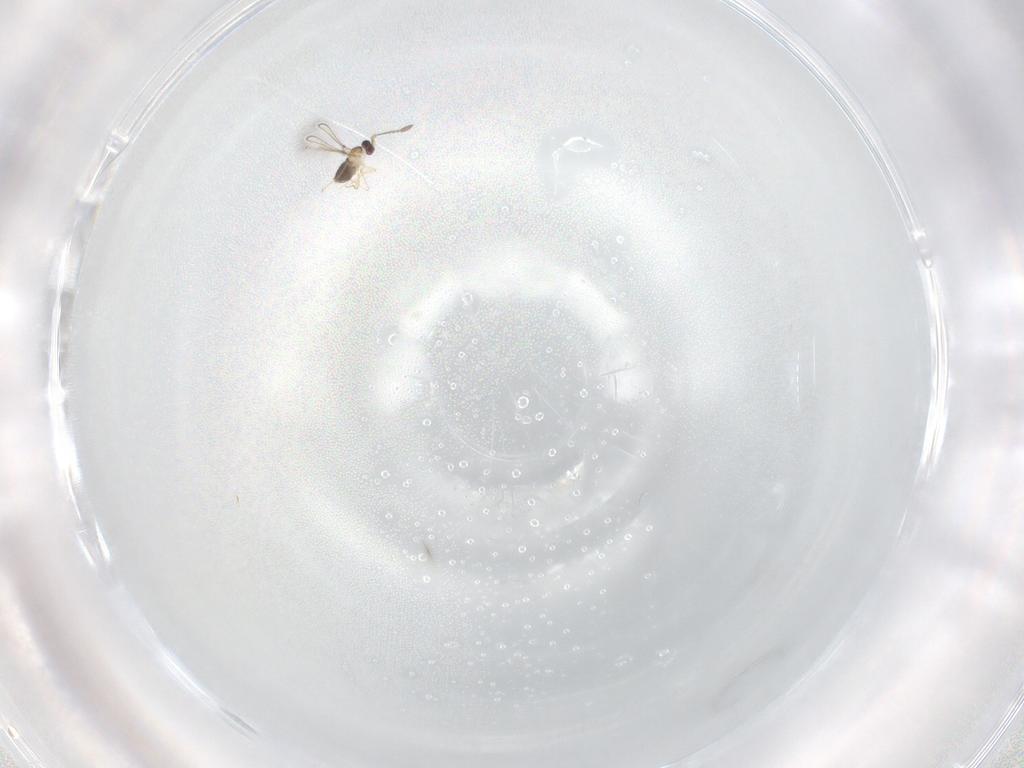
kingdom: Animalia
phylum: Arthropoda
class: Insecta
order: Hymenoptera
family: Mymaridae
